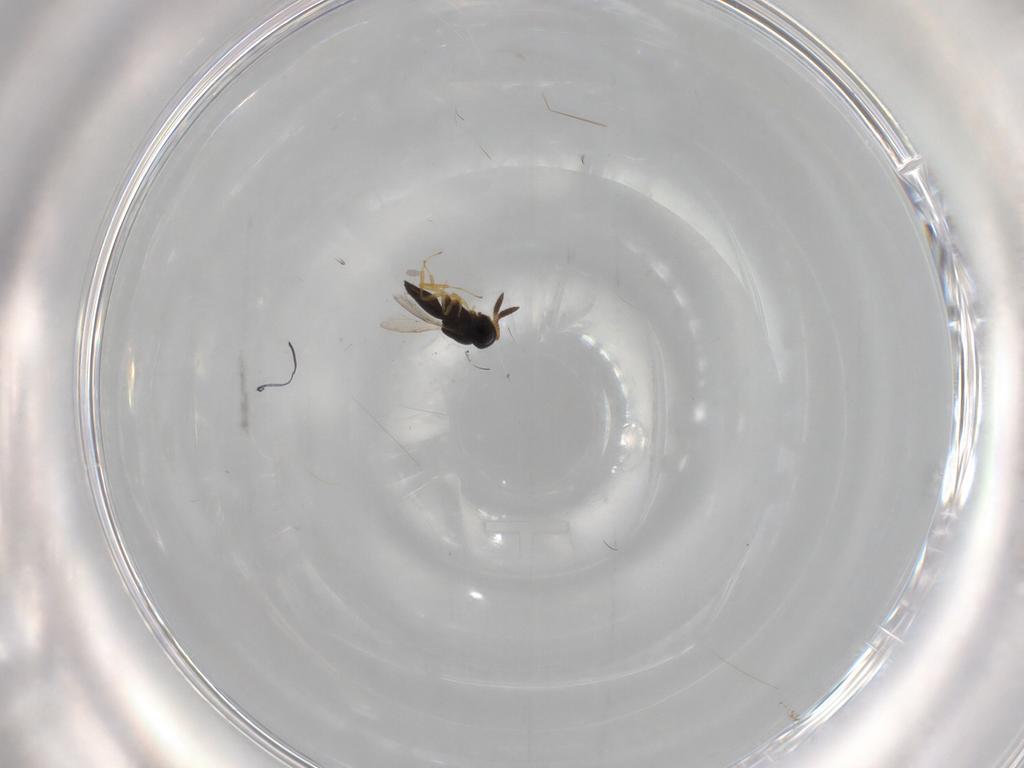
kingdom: Animalia
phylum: Arthropoda
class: Insecta
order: Hymenoptera
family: Scelionidae
